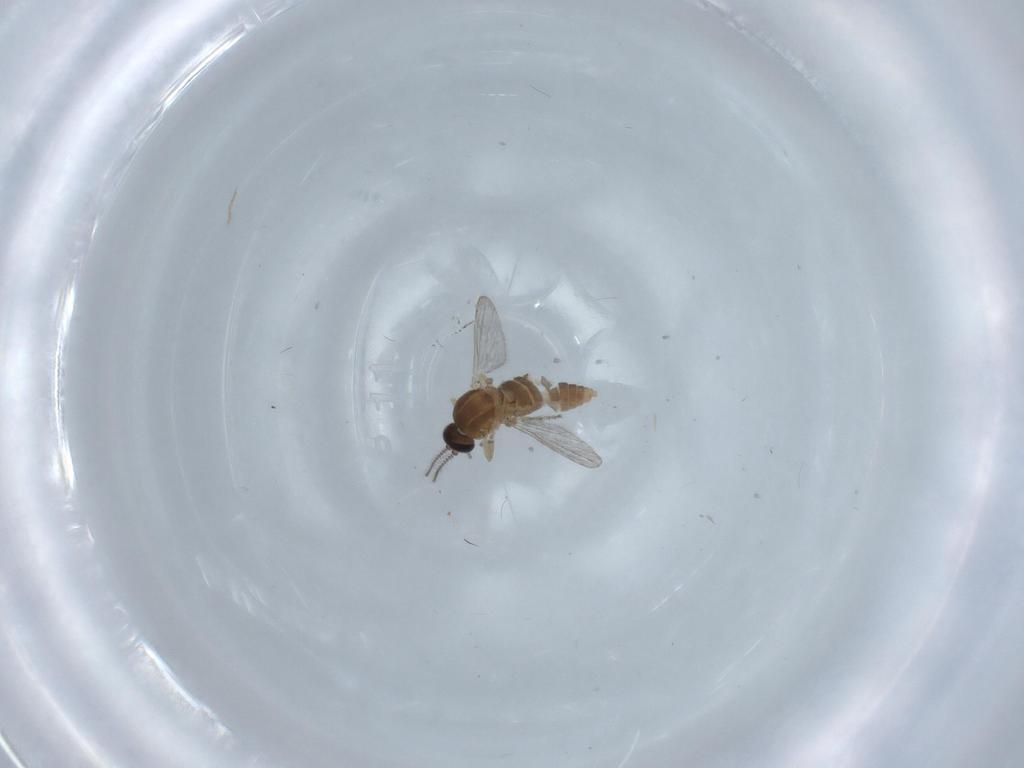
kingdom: Animalia
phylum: Arthropoda
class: Insecta
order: Diptera
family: Ceratopogonidae
